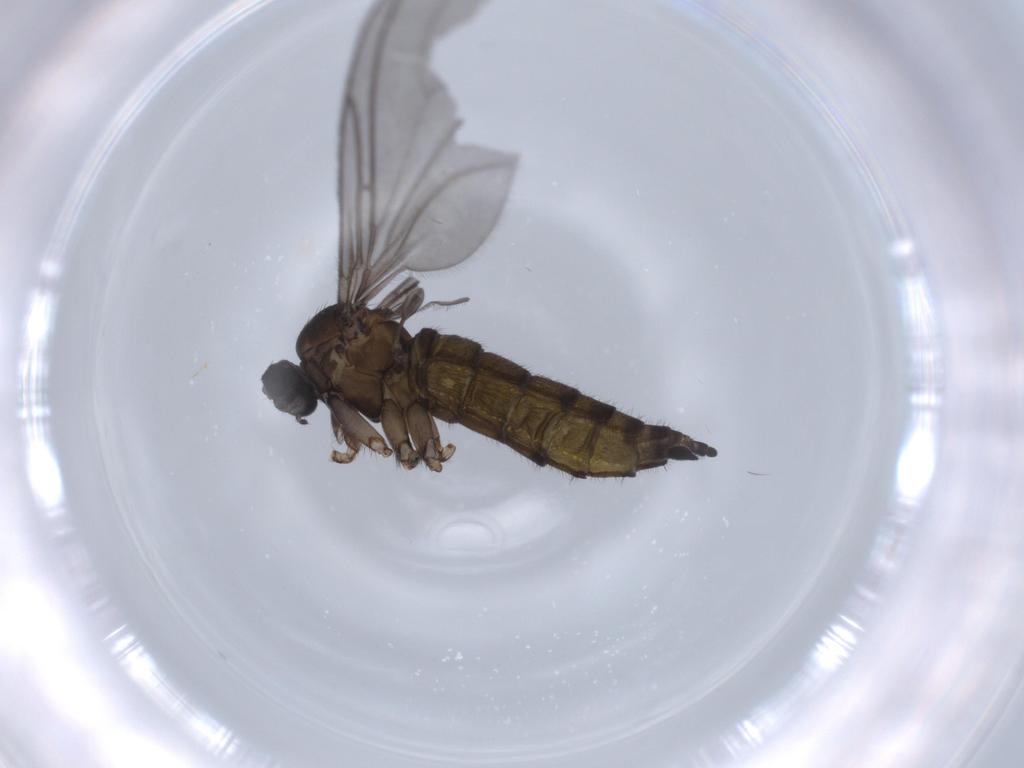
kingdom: Animalia
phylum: Arthropoda
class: Insecta
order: Diptera
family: Sciaridae
